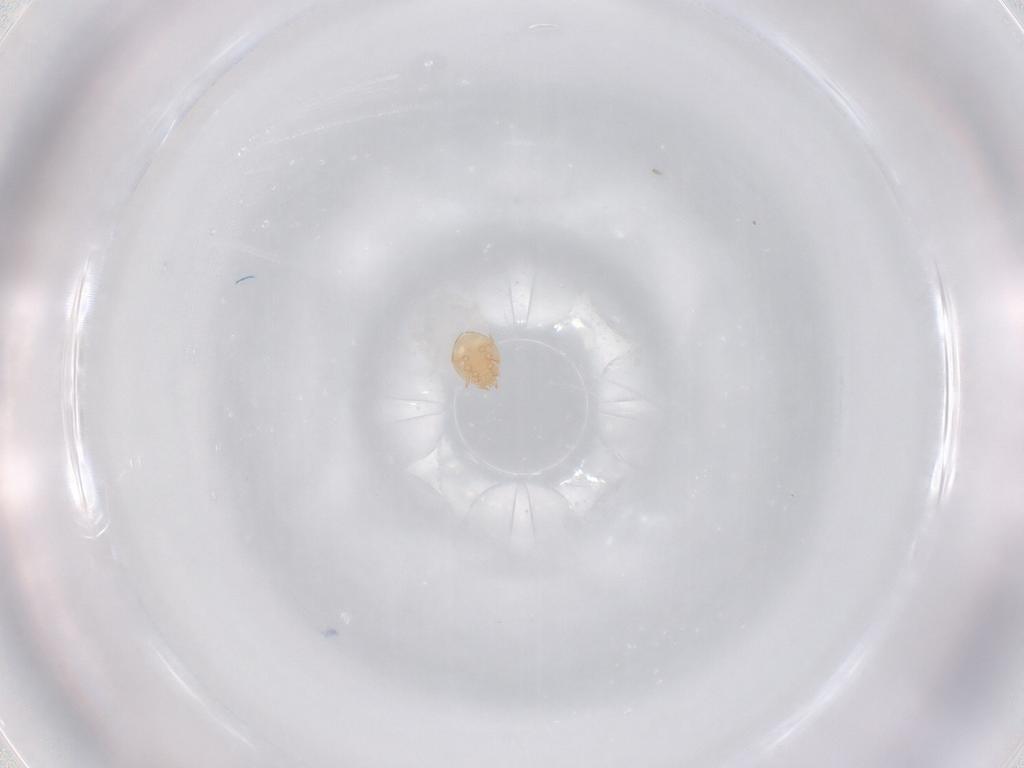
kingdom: Animalia
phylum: Arthropoda
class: Arachnida
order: Mesostigmata
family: Trematuridae
